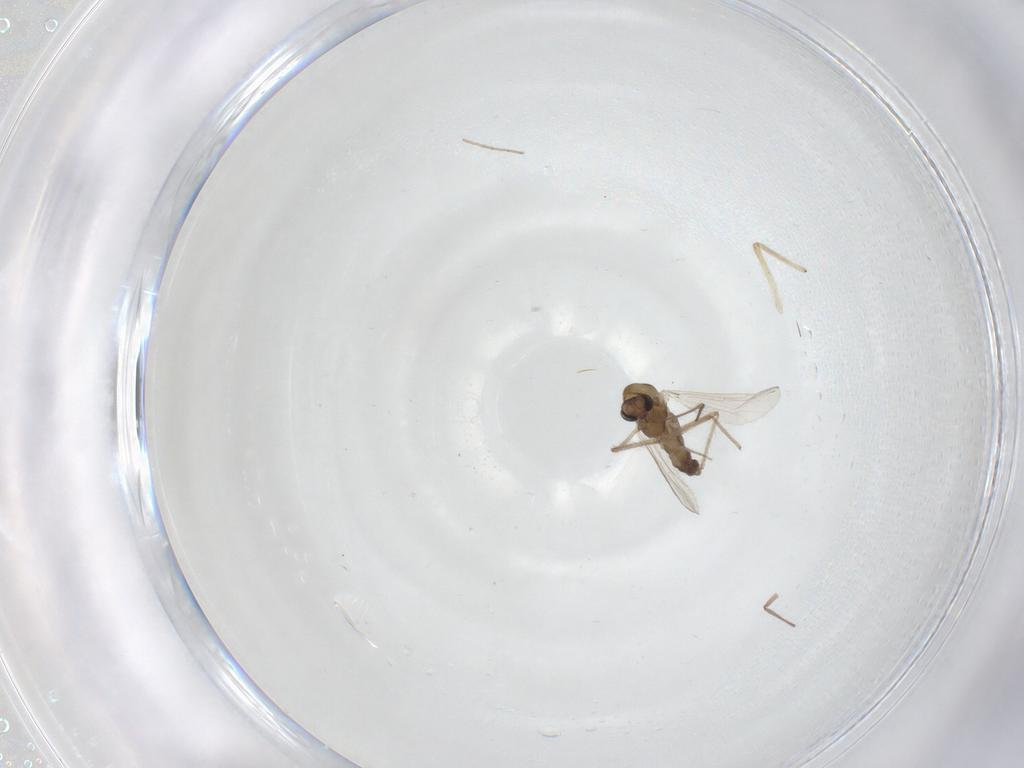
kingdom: Animalia
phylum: Arthropoda
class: Insecta
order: Diptera
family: Chironomidae
